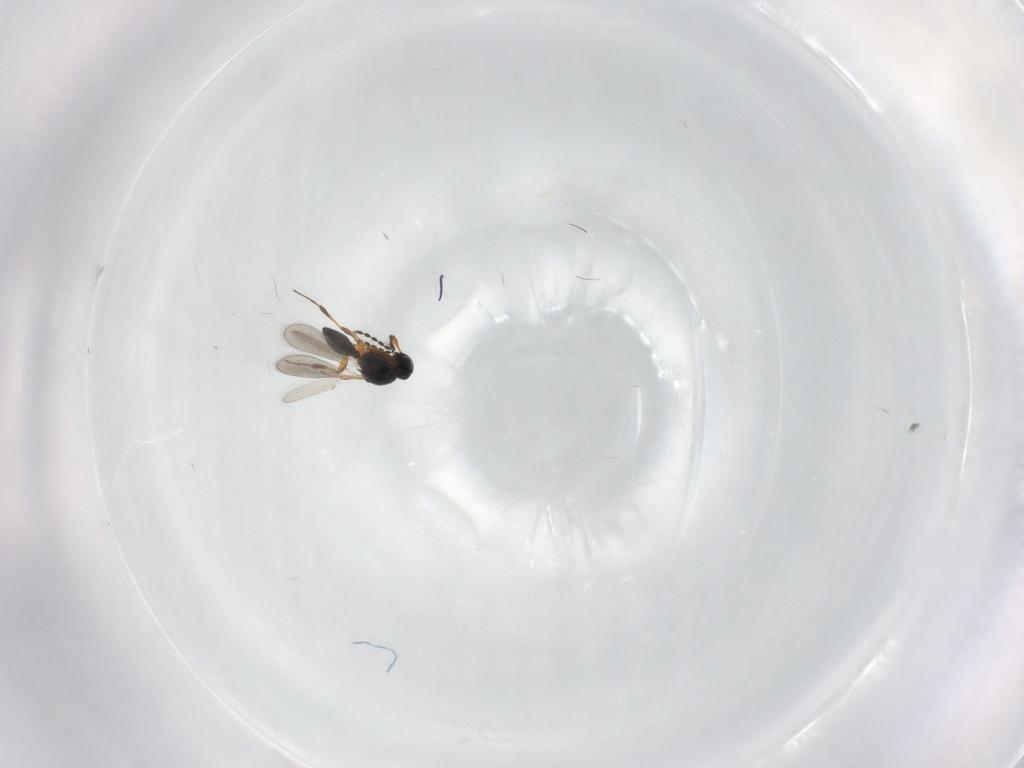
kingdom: Animalia
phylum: Arthropoda
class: Insecta
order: Hymenoptera
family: Platygastridae
